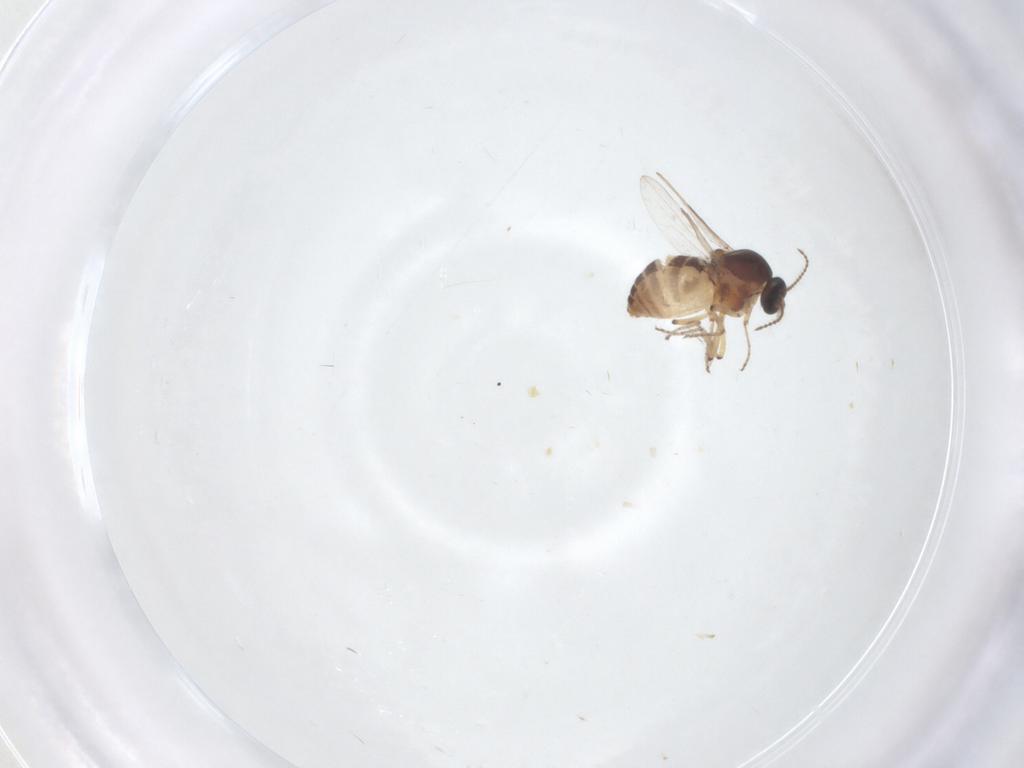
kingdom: Animalia
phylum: Arthropoda
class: Insecta
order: Diptera
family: Ceratopogonidae
